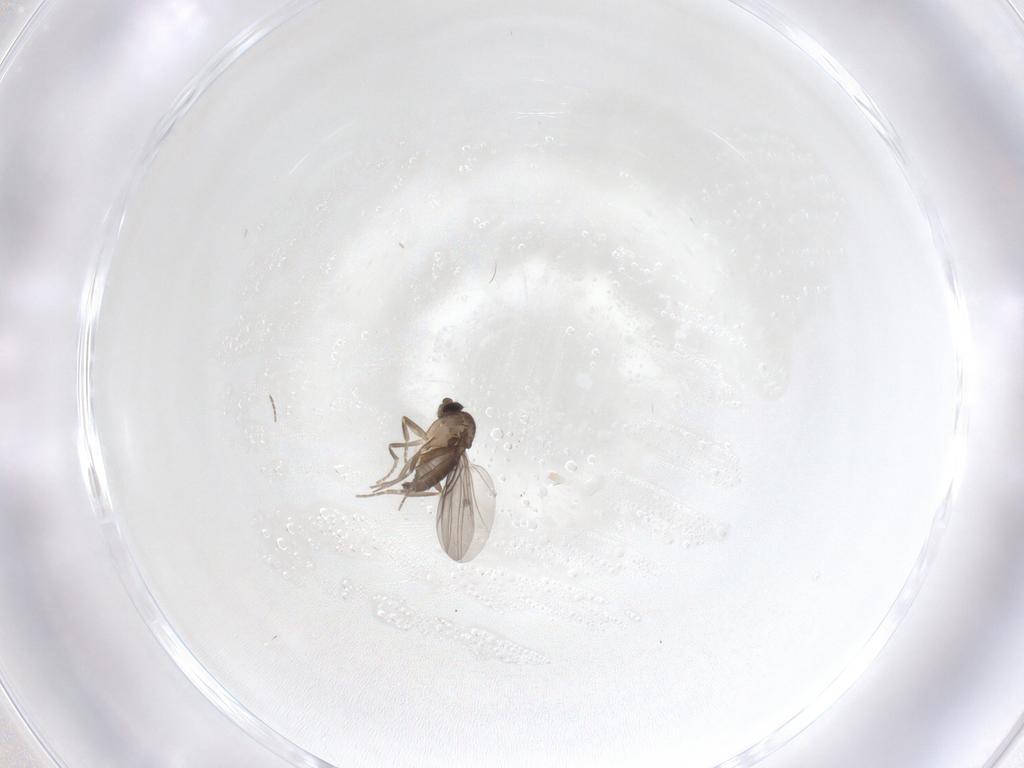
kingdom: Animalia
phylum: Arthropoda
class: Insecta
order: Diptera
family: Phoridae
